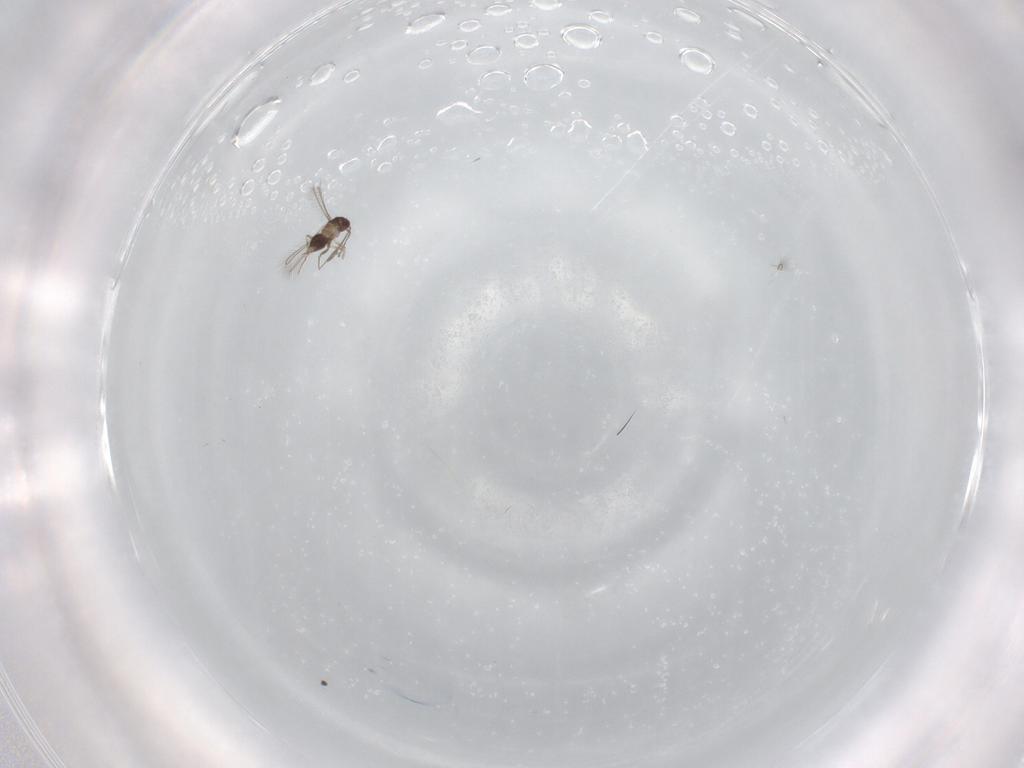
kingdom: Animalia
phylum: Arthropoda
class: Insecta
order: Hymenoptera
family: Mymaridae
